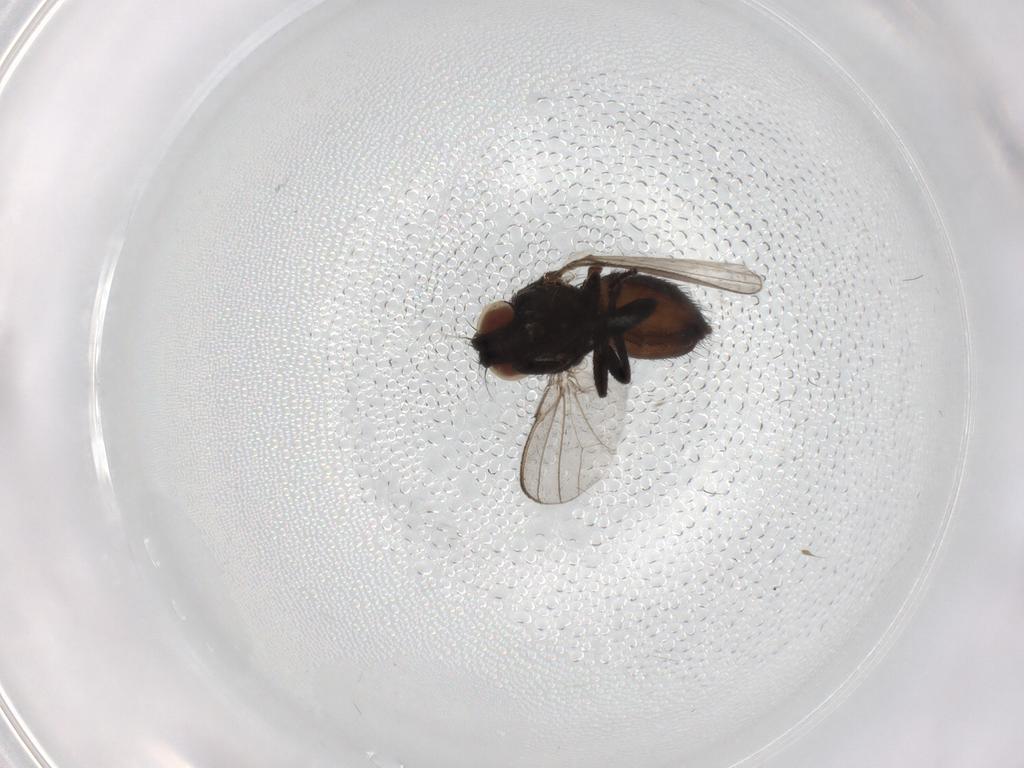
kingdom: Animalia
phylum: Arthropoda
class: Insecta
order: Diptera
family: Milichiidae
